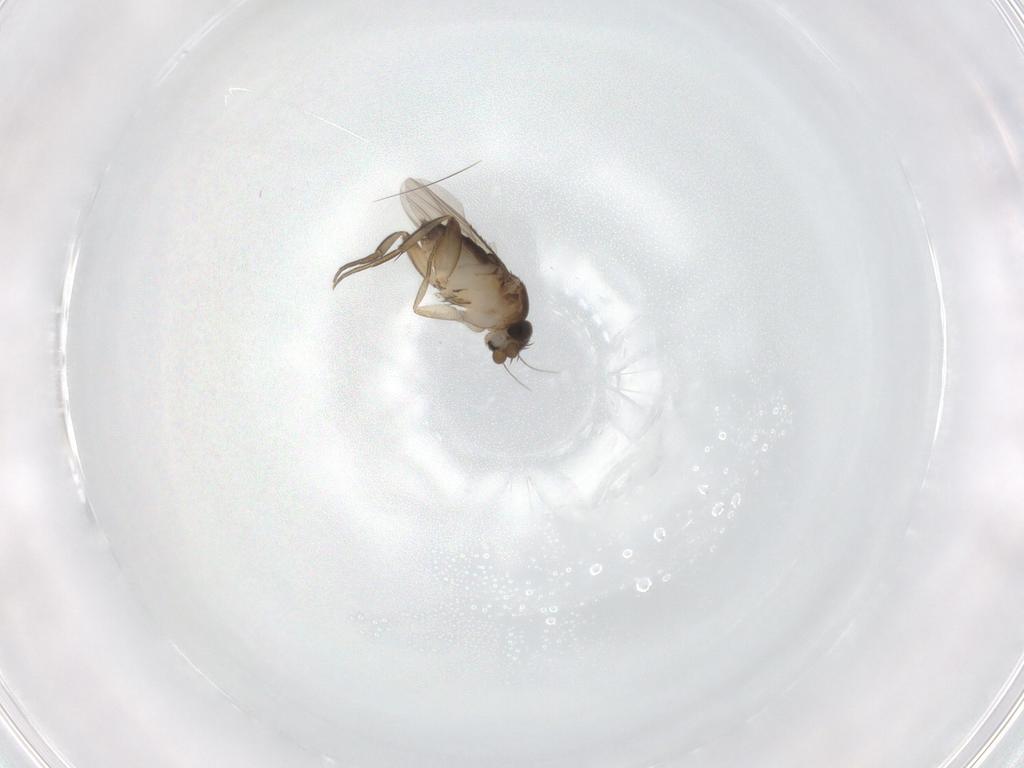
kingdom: Animalia
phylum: Arthropoda
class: Insecta
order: Diptera
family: Phoridae
